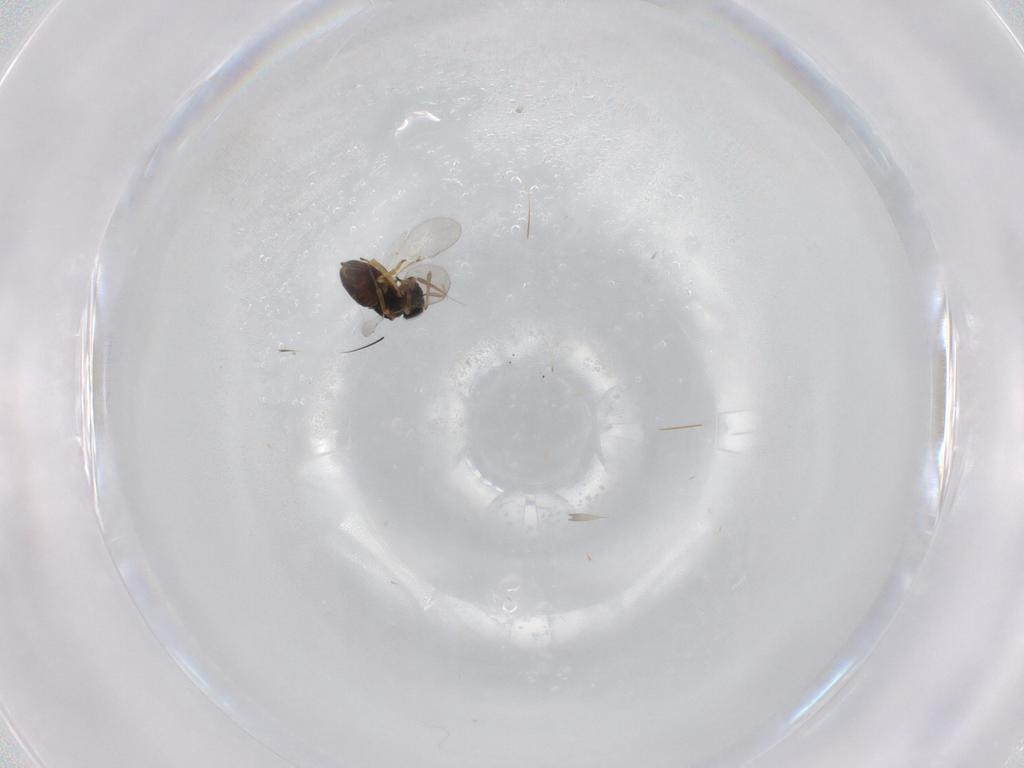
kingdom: Animalia
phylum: Arthropoda
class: Insecta
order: Hymenoptera
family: Encyrtidae
